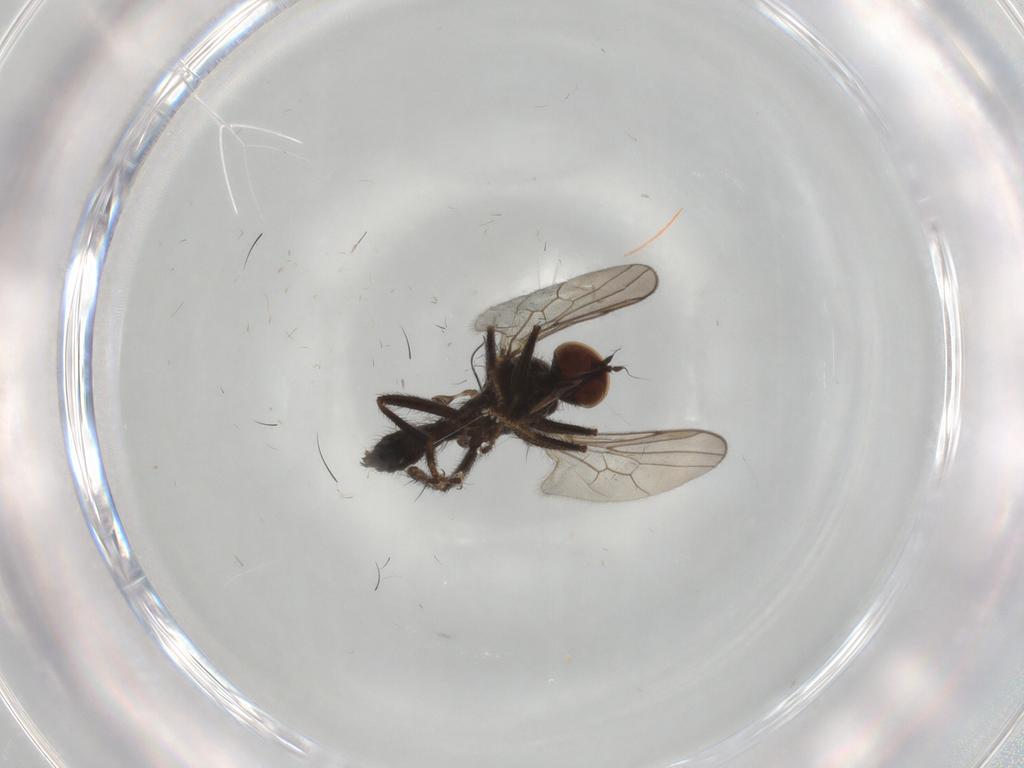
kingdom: Animalia
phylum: Arthropoda
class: Insecta
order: Diptera
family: Hybotidae
